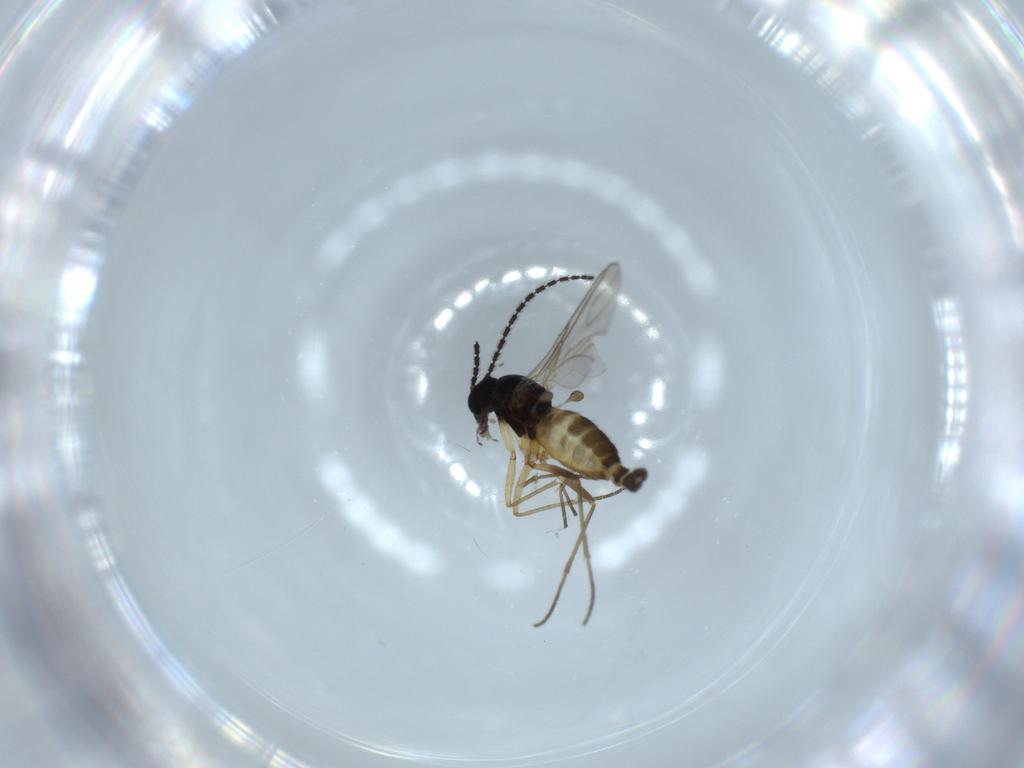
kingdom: Animalia
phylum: Arthropoda
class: Insecta
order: Diptera
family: Sciaridae
